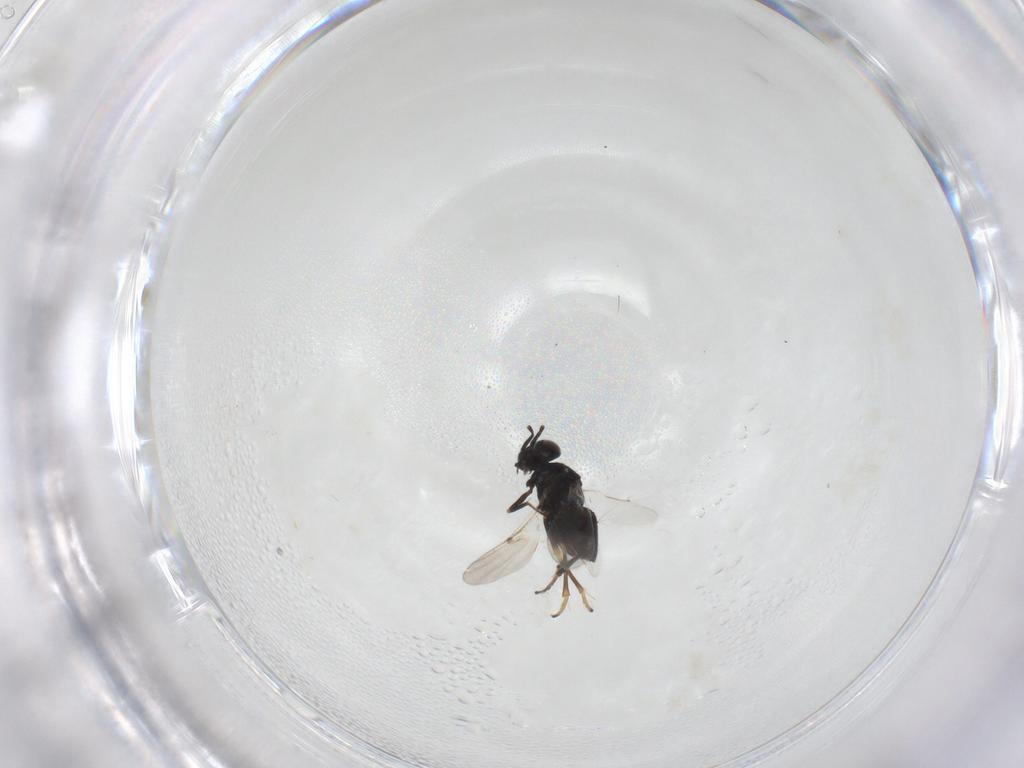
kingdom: Animalia
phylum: Arthropoda
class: Insecta
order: Hymenoptera
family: Encyrtidae
